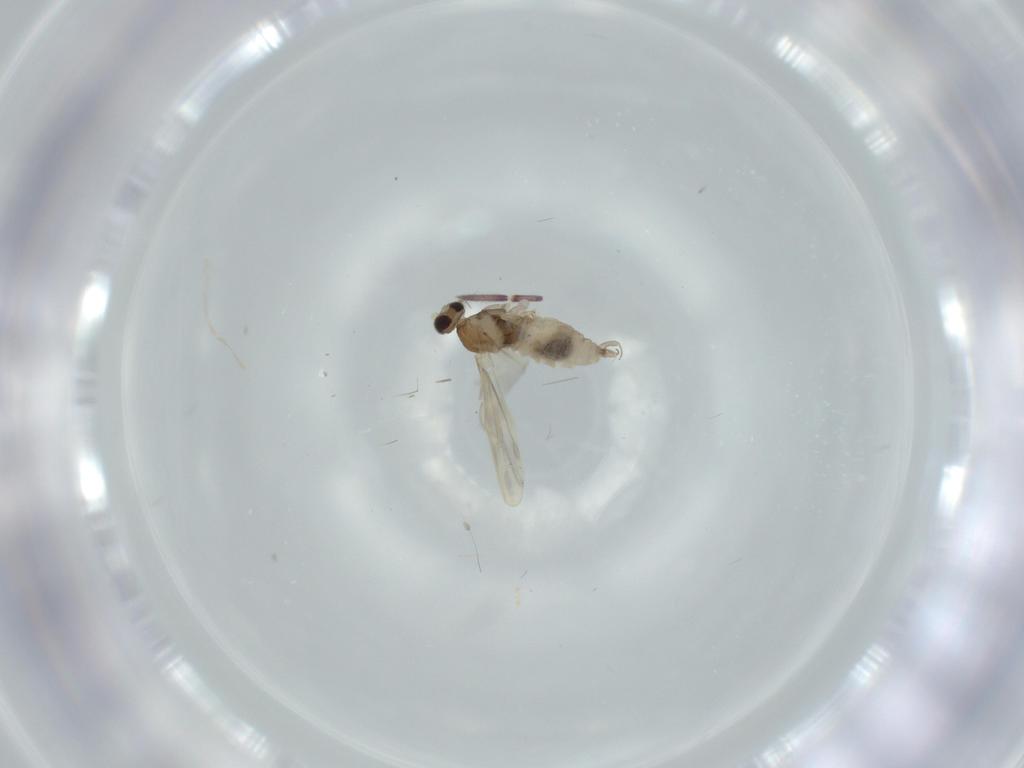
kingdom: Animalia
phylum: Arthropoda
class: Insecta
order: Diptera
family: Cecidomyiidae
